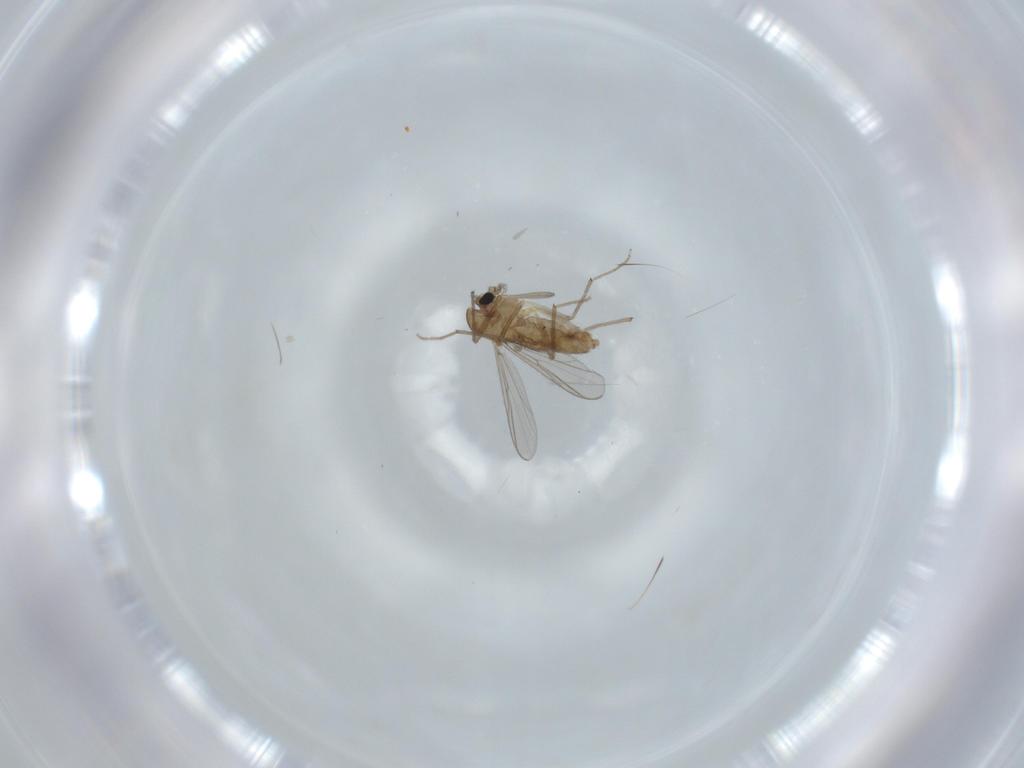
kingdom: Animalia
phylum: Arthropoda
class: Insecta
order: Diptera
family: Chironomidae
